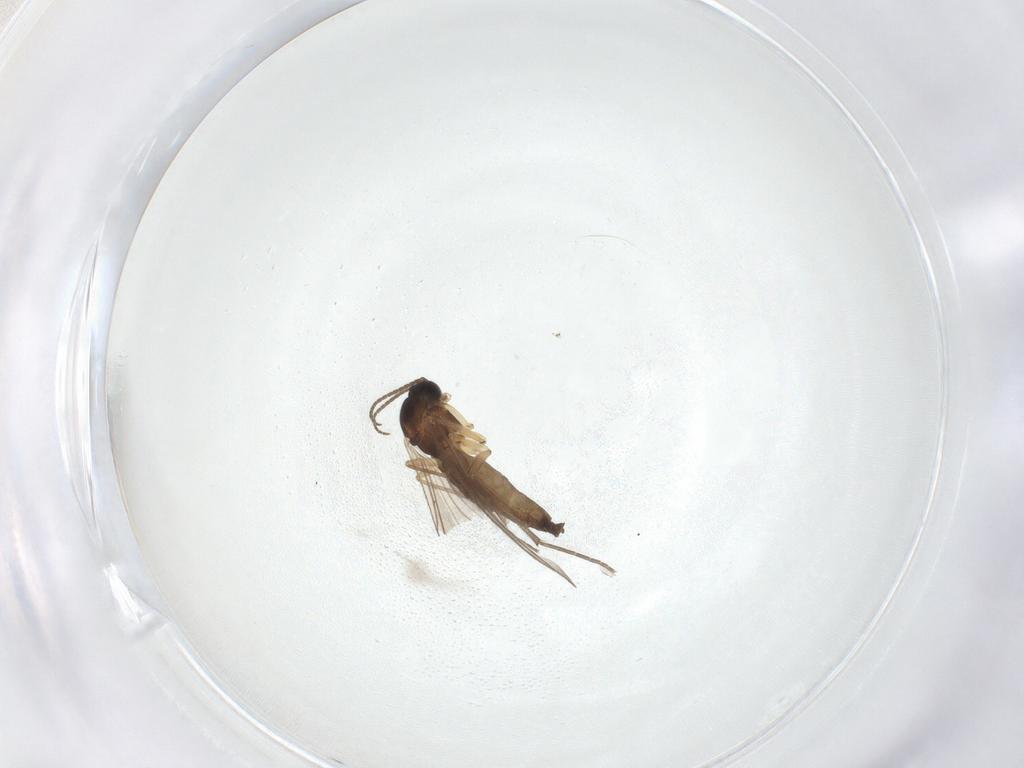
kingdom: Animalia
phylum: Arthropoda
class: Insecta
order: Diptera
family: Sciaridae
